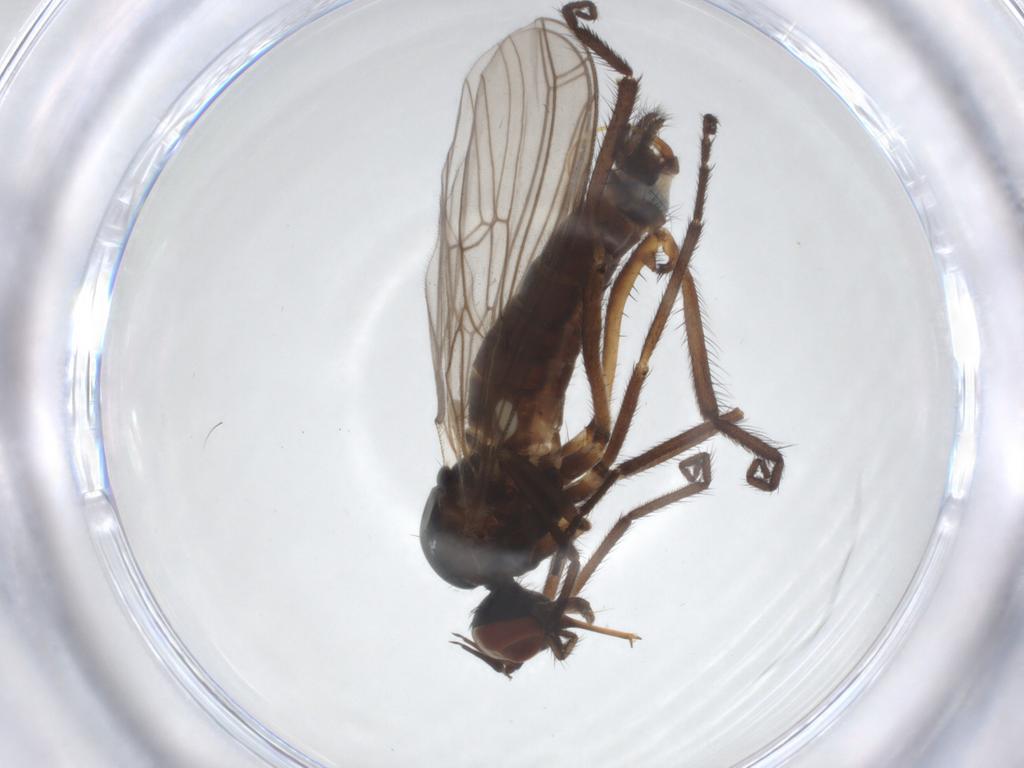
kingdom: Animalia
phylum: Arthropoda
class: Insecta
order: Diptera
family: Empididae
